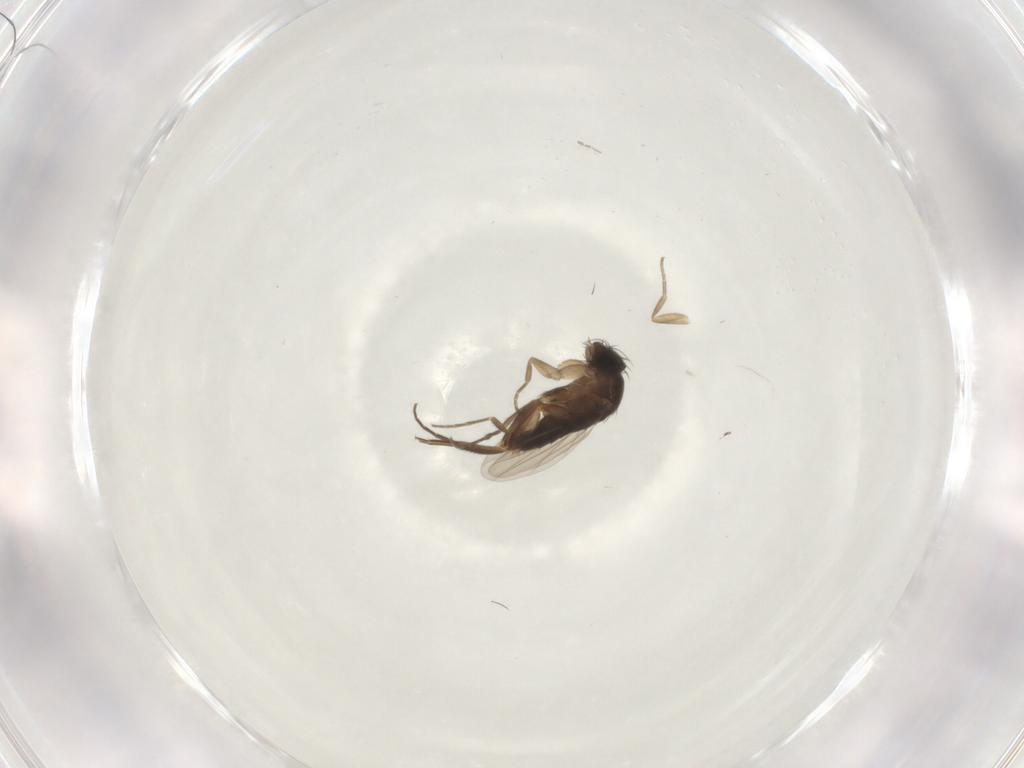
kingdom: Animalia
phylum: Arthropoda
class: Insecta
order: Diptera
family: Phoridae
